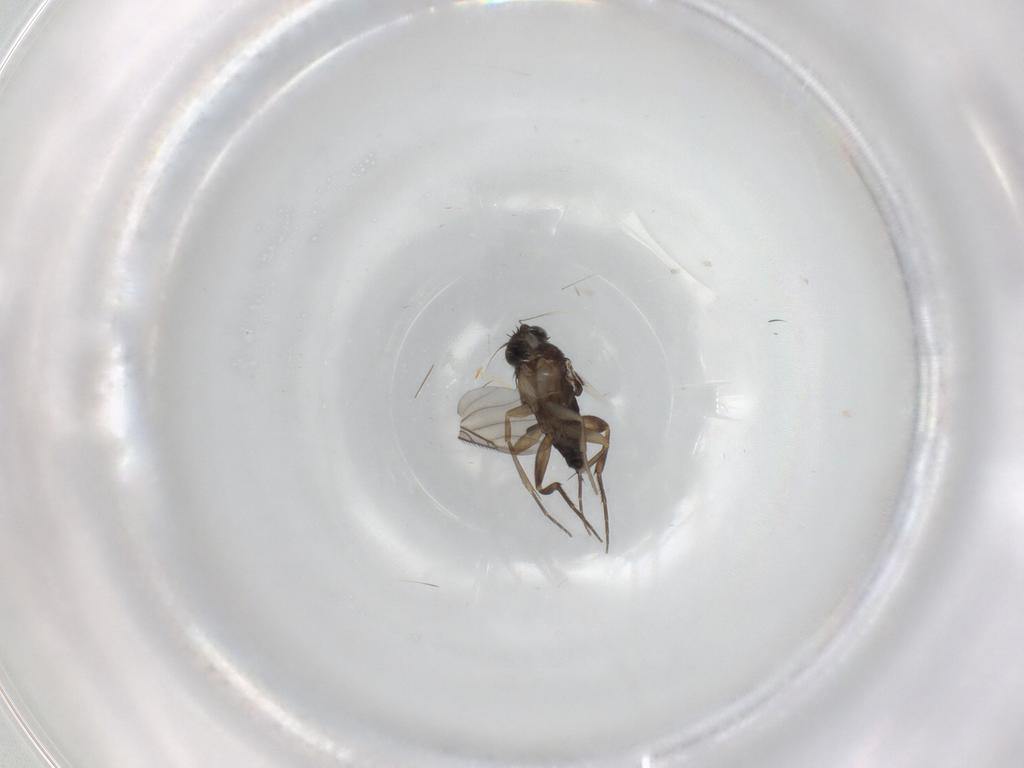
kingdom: Animalia
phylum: Arthropoda
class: Insecta
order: Diptera
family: Phoridae
